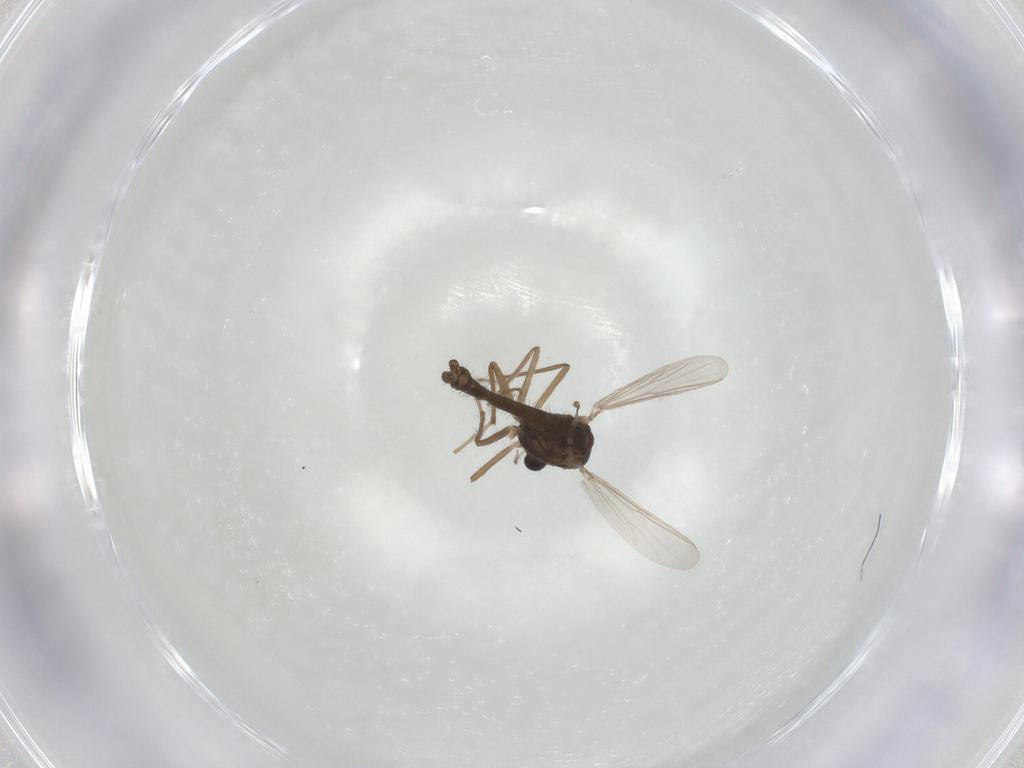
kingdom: Animalia
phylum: Arthropoda
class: Insecta
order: Diptera
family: Chironomidae
